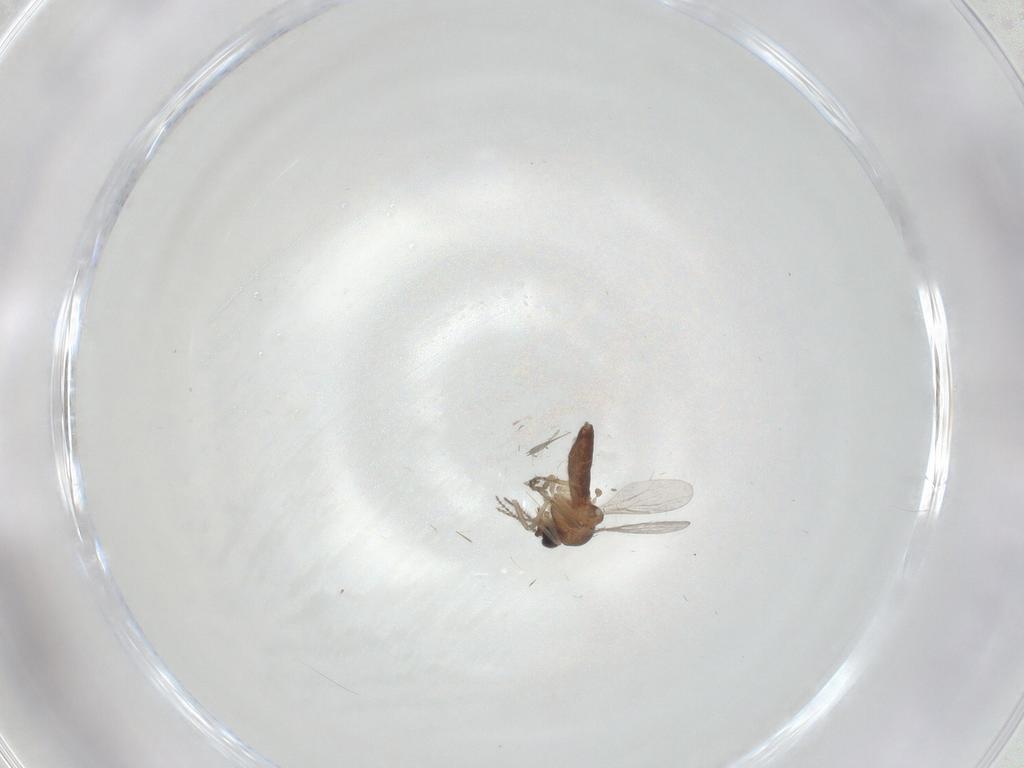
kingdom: Animalia
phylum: Arthropoda
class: Insecta
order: Diptera
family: Ceratopogonidae
